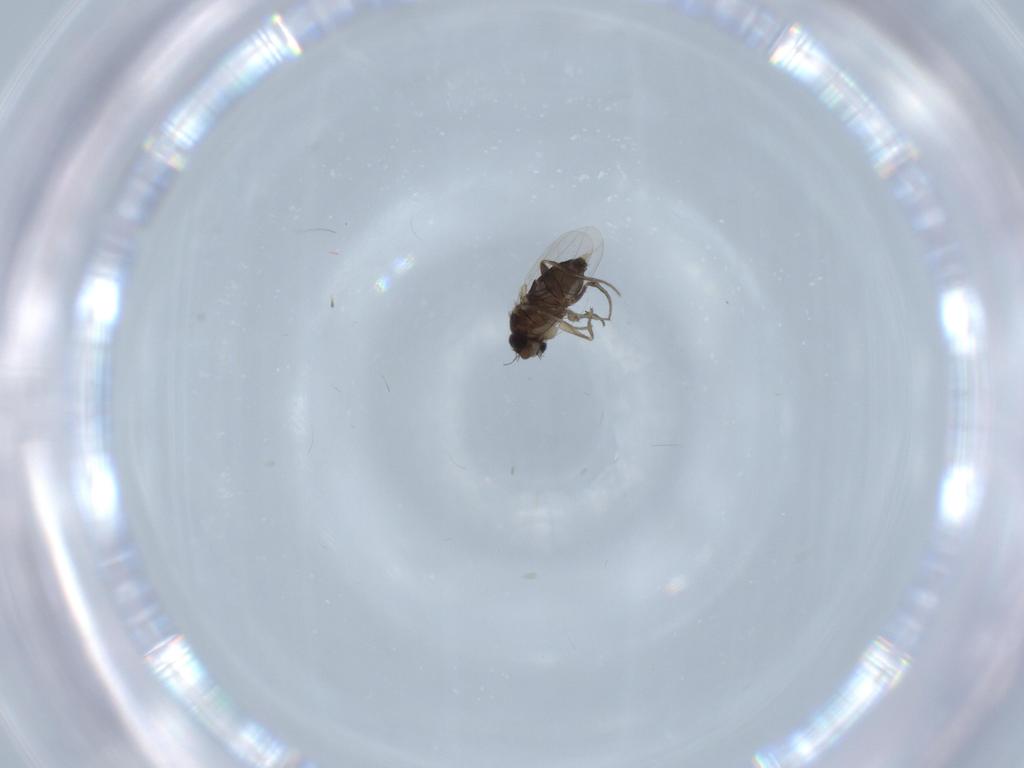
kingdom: Animalia
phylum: Arthropoda
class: Insecta
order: Diptera
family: Phoridae
